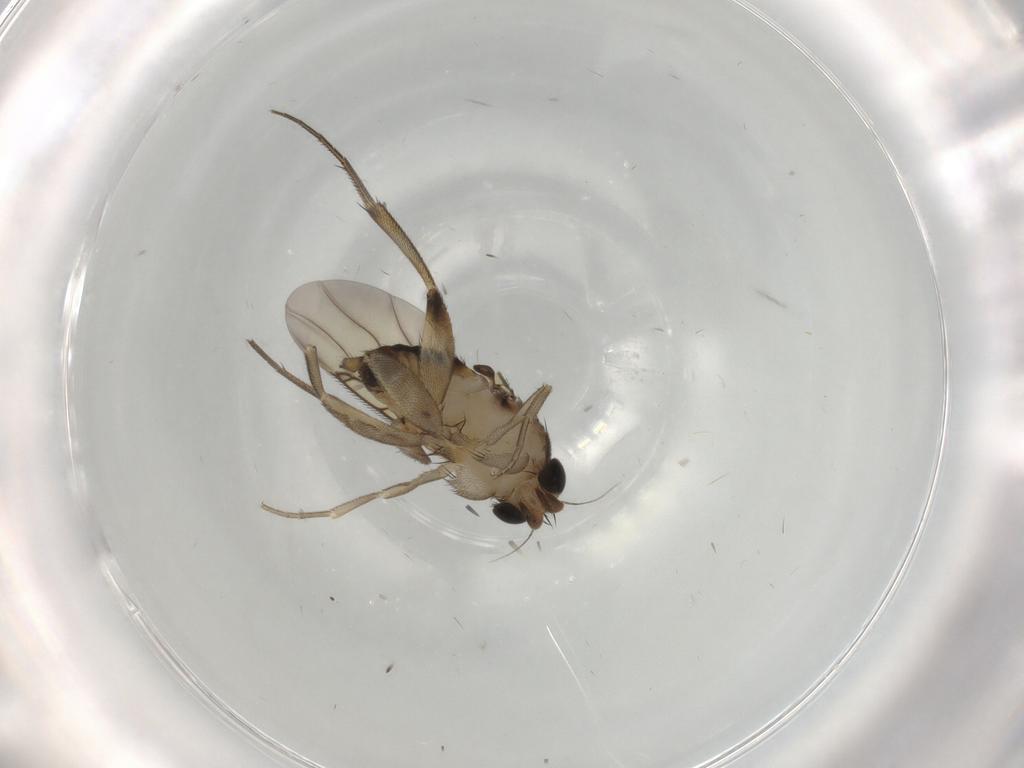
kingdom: Animalia
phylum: Arthropoda
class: Insecta
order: Diptera
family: Phoridae
